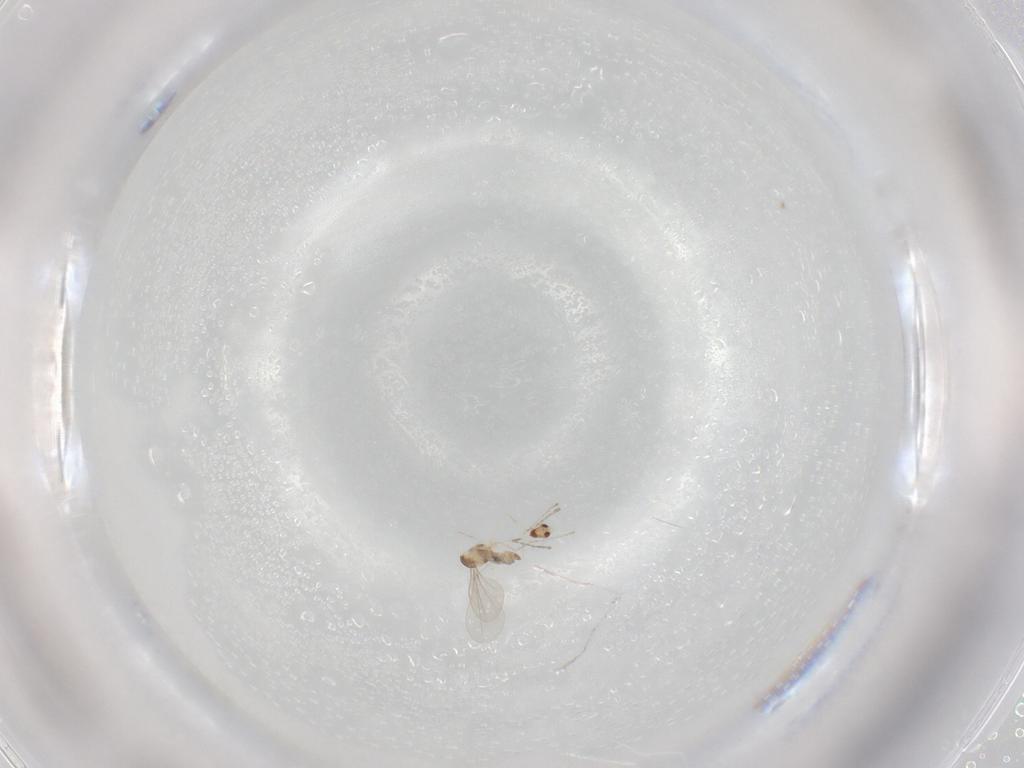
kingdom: Animalia
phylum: Arthropoda
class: Insecta
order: Diptera
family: Cecidomyiidae
